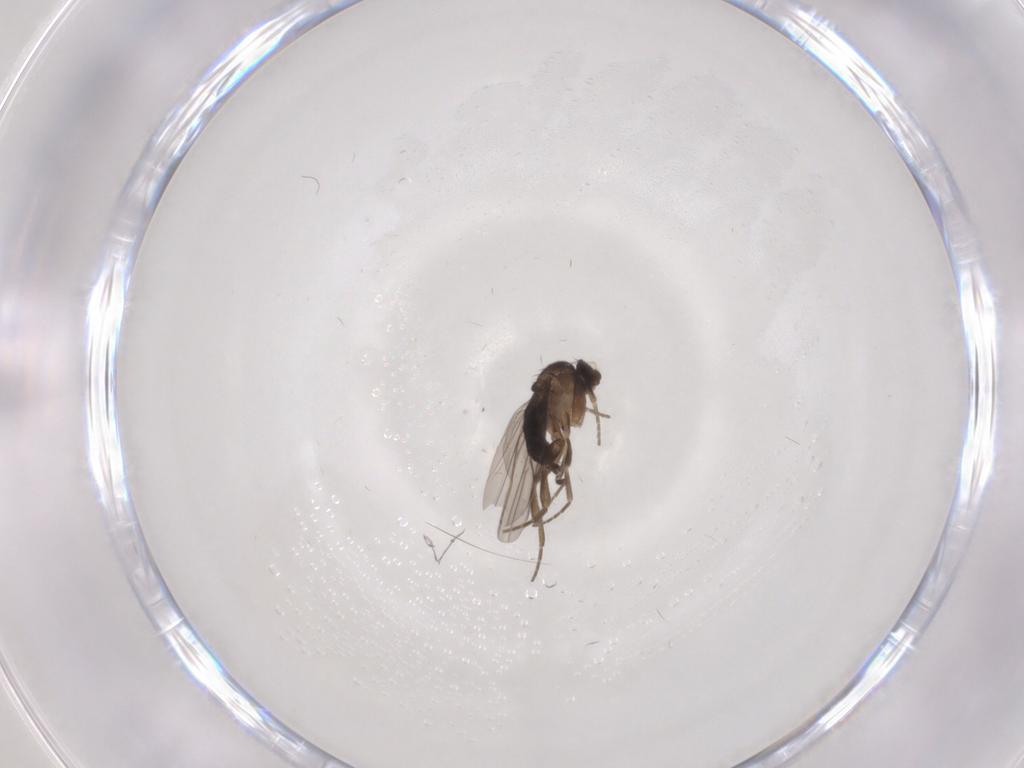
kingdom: Animalia
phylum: Arthropoda
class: Insecta
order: Diptera
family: Phoridae
